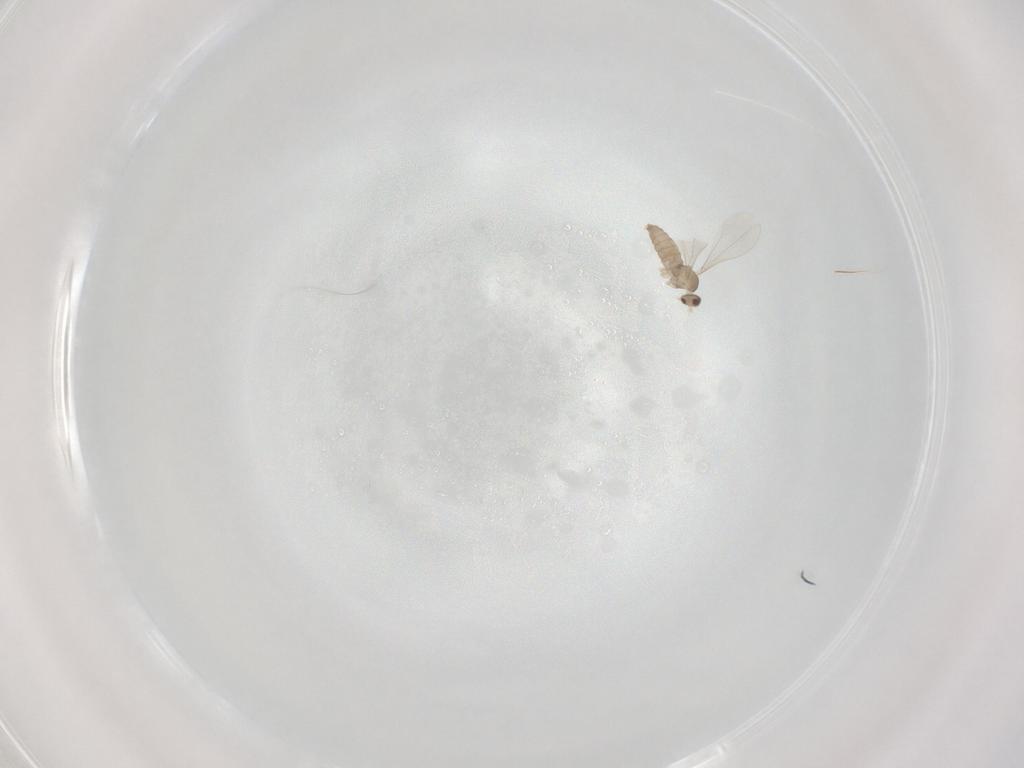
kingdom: Animalia
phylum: Arthropoda
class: Insecta
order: Diptera
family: Cecidomyiidae
